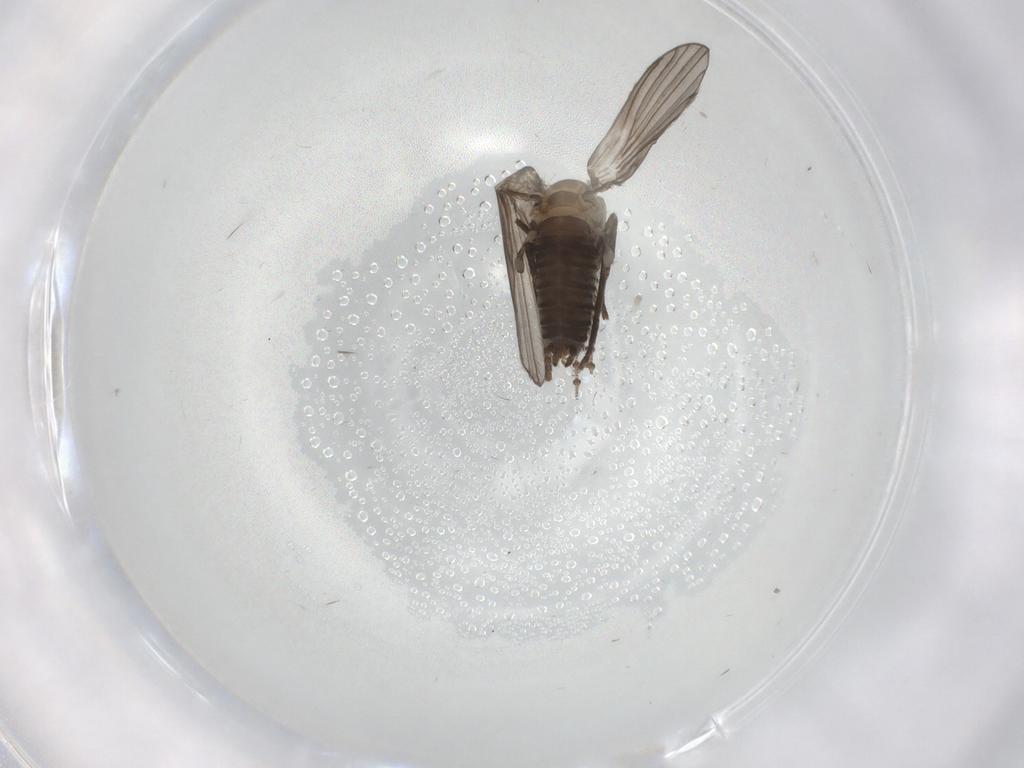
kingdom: Animalia
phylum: Arthropoda
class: Insecta
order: Diptera
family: Psychodidae
